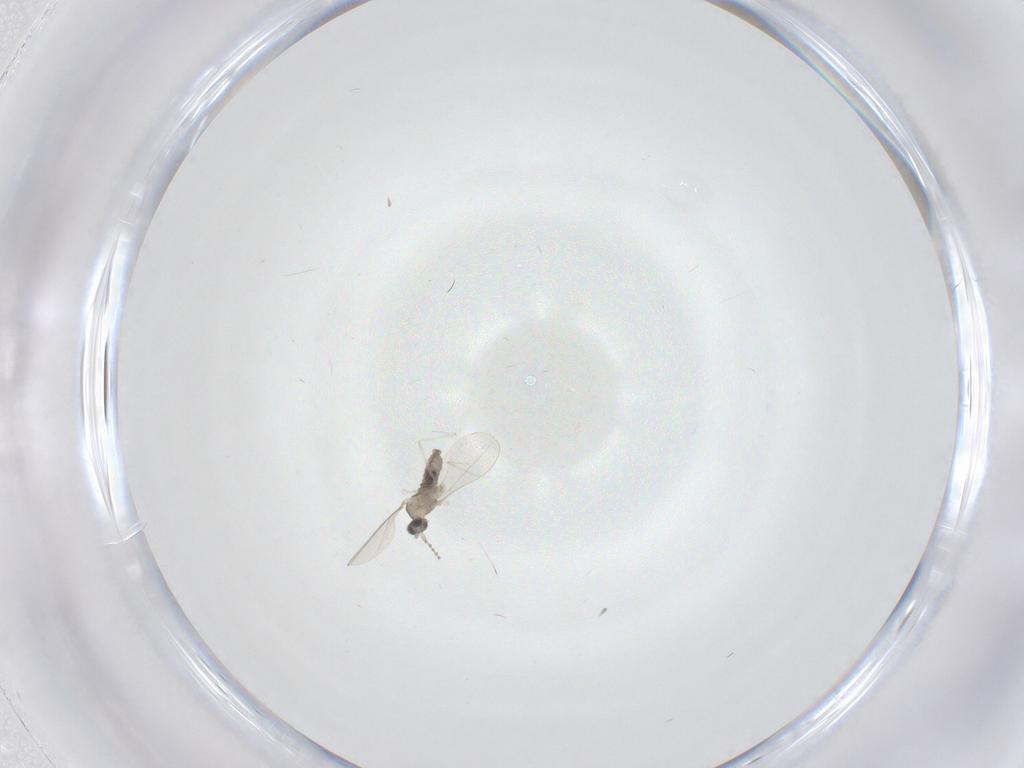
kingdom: Animalia
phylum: Arthropoda
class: Insecta
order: Diptera
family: Cecidomyiidae
